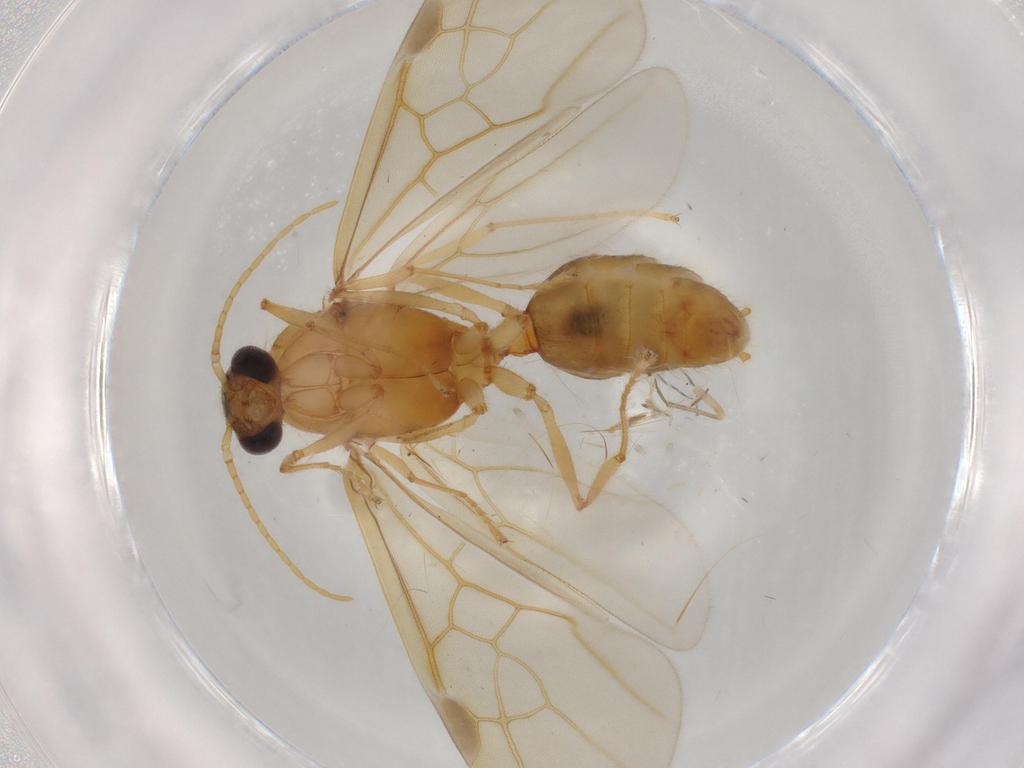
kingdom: Animalia
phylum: Arthropoda
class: Insecta
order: Hymenoptera
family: Formicidae
